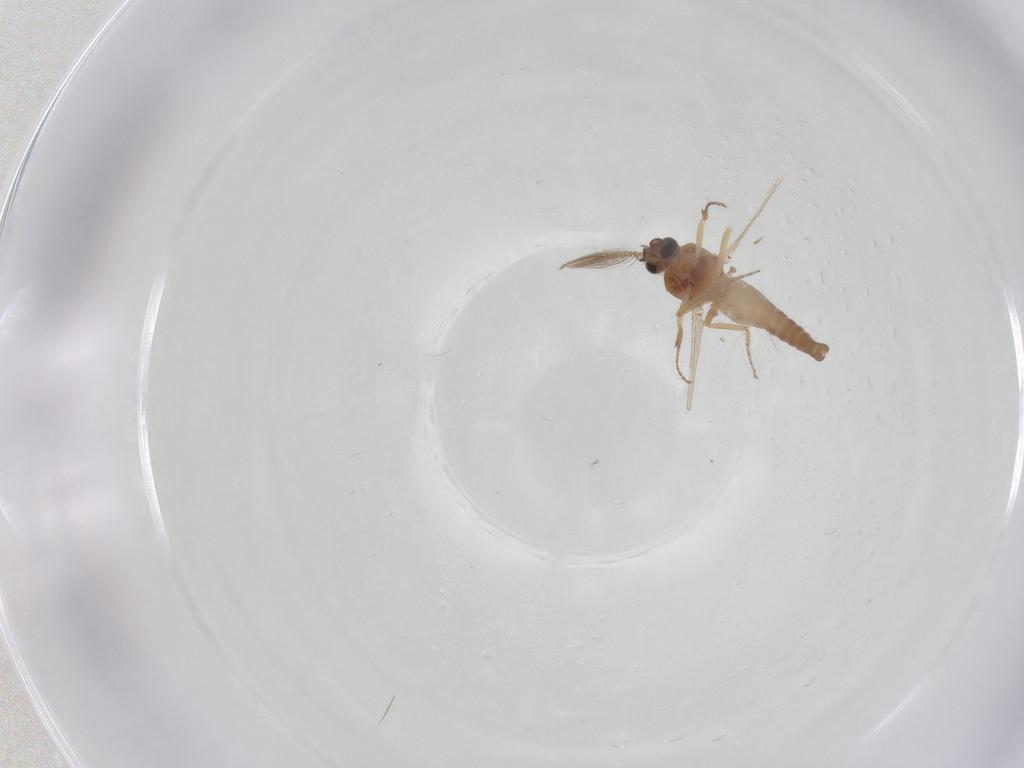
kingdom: Animalia
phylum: Arthropoda
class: Insecta
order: Diptera
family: Ceratopogonidae
